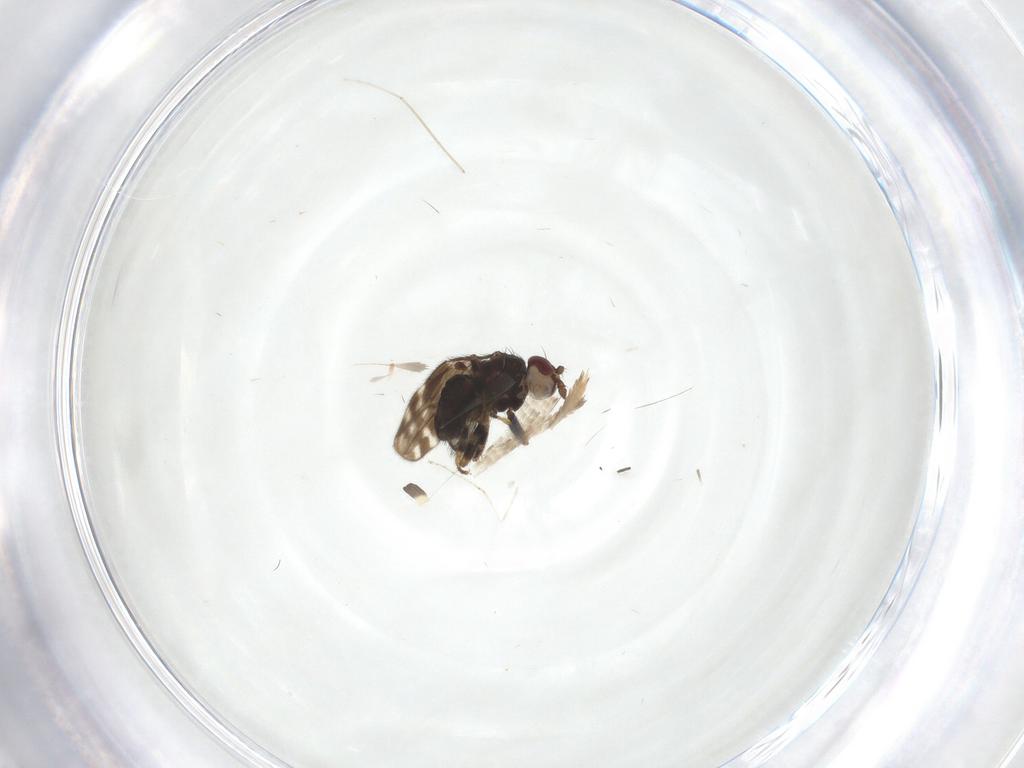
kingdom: Animalia
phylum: Arthropoda
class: Insecta
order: Diptera
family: Sphaeroceridae
